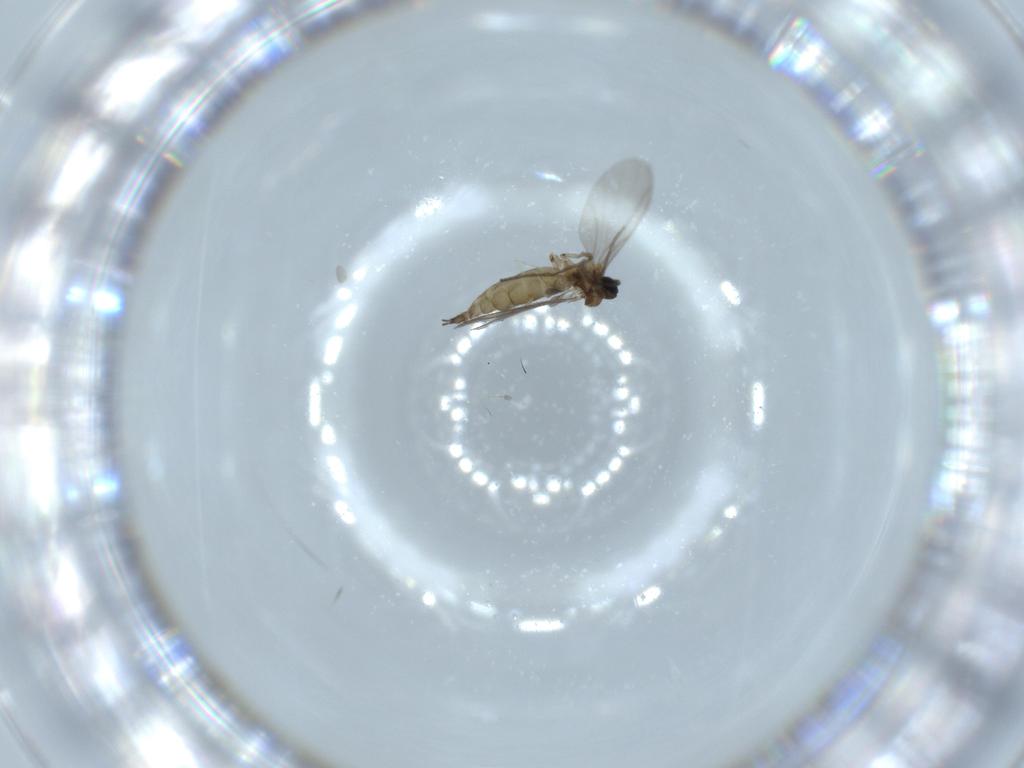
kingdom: Animalia
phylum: Arthropoda
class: Insecta
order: Diptera
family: Hybotidae
